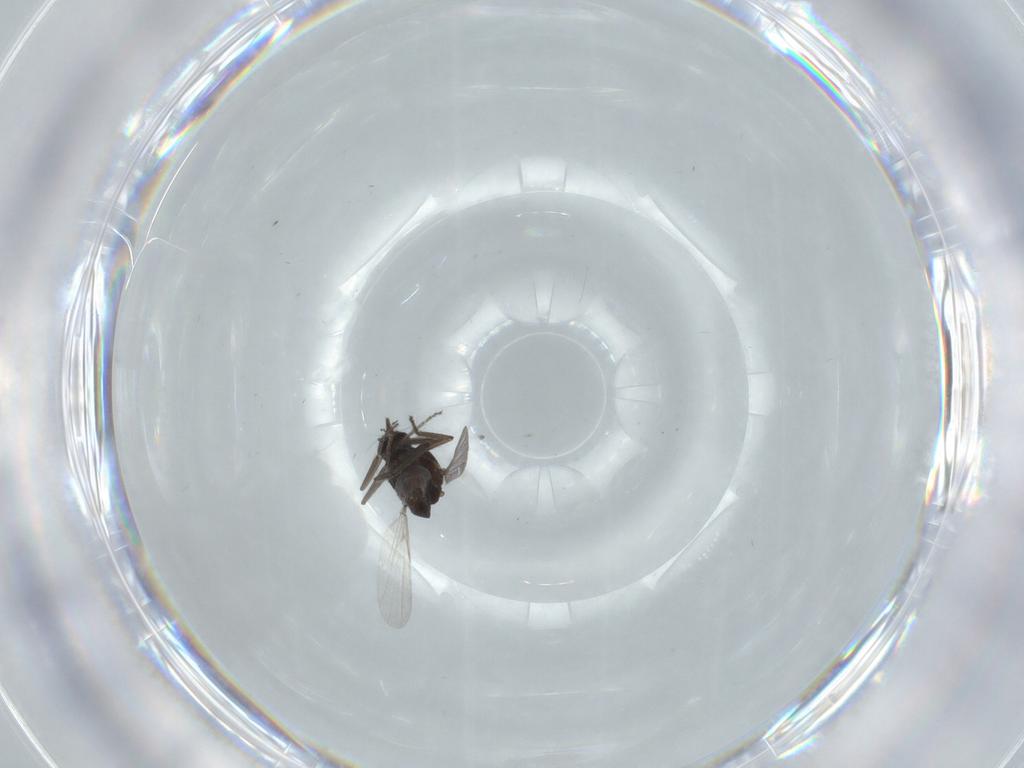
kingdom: Animalia
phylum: Arthropoda
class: Insecta
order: Diptera
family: Ceratopogonidae
